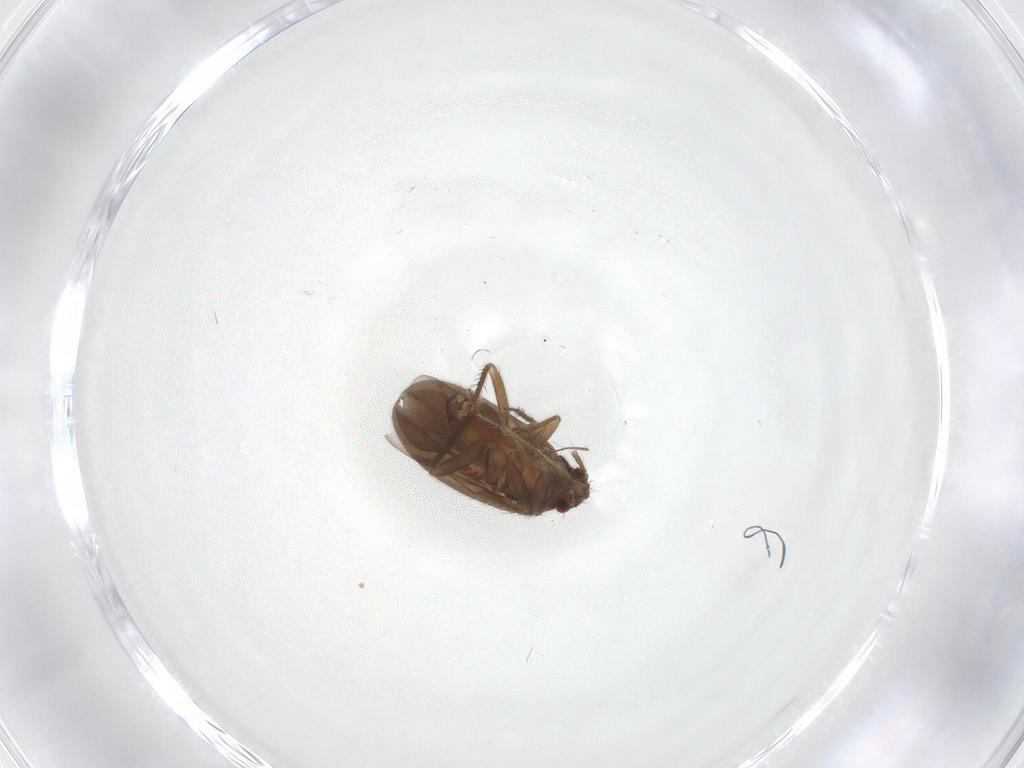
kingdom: Animalia
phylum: Arthropoda
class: Insecta
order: Hemiptera
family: Ceratocombidae
